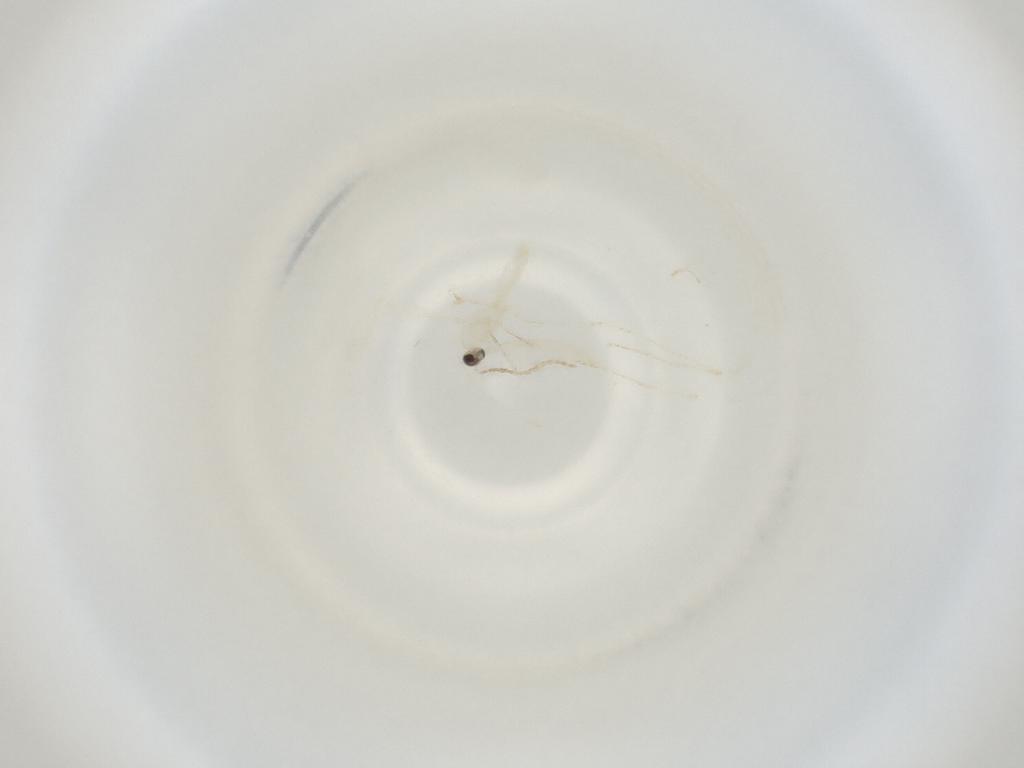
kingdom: Animalia
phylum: Arthropoda
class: Insecta
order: Diptera
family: Cecidomyiidae
